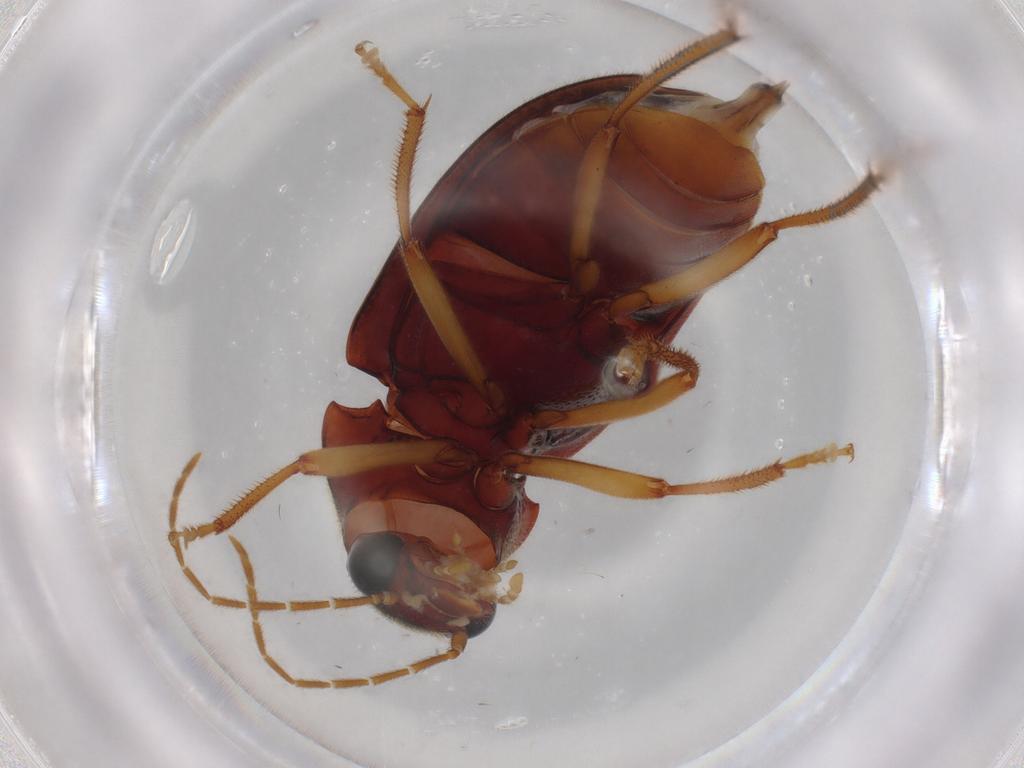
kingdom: Animalia
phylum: Arthropoda
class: Insecta
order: Coleoptera
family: Ptilodactylidae
